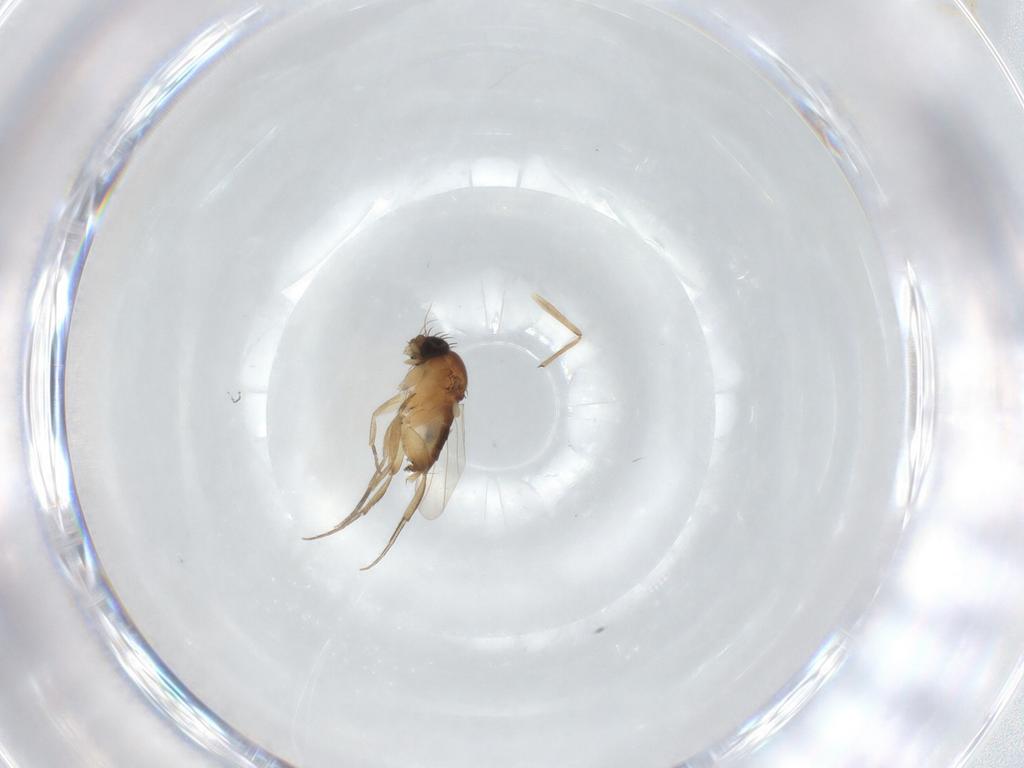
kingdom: Animalia
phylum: Arthropoda
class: Insecta
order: Diptera
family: Phoridae
